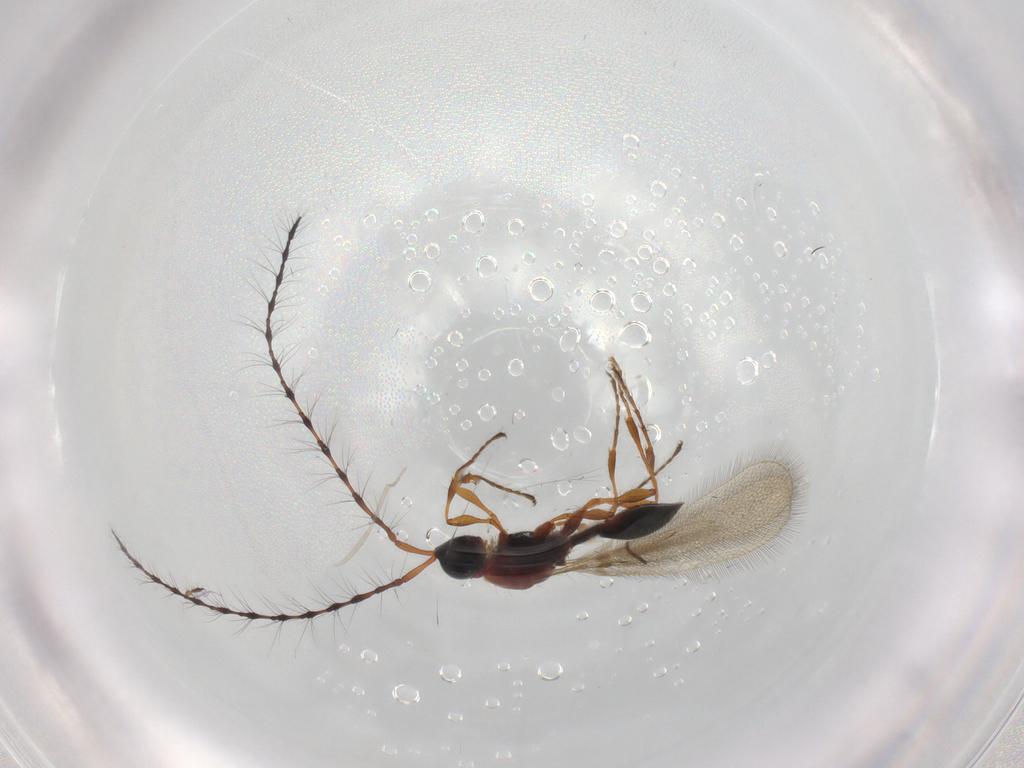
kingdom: Animalia
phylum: Arthropoda
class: Insecta
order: Hymenoptera
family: Diapriidae
